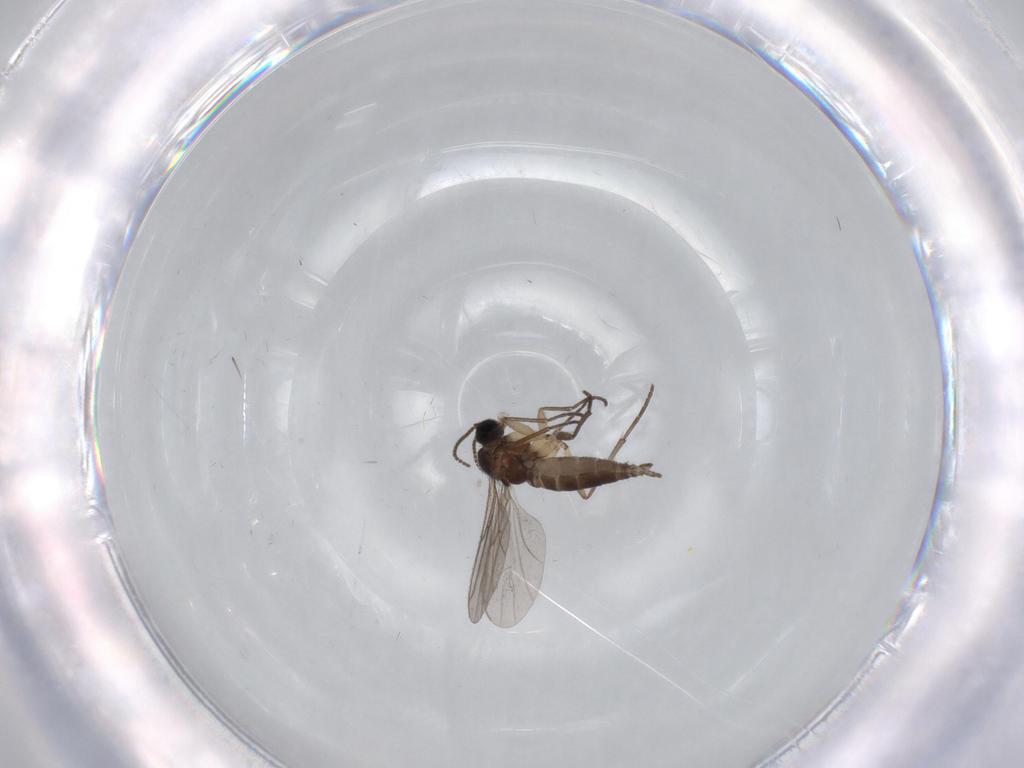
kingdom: Animalia
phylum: Arthropoda
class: Insecta
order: Diptera
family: Sciaridae
